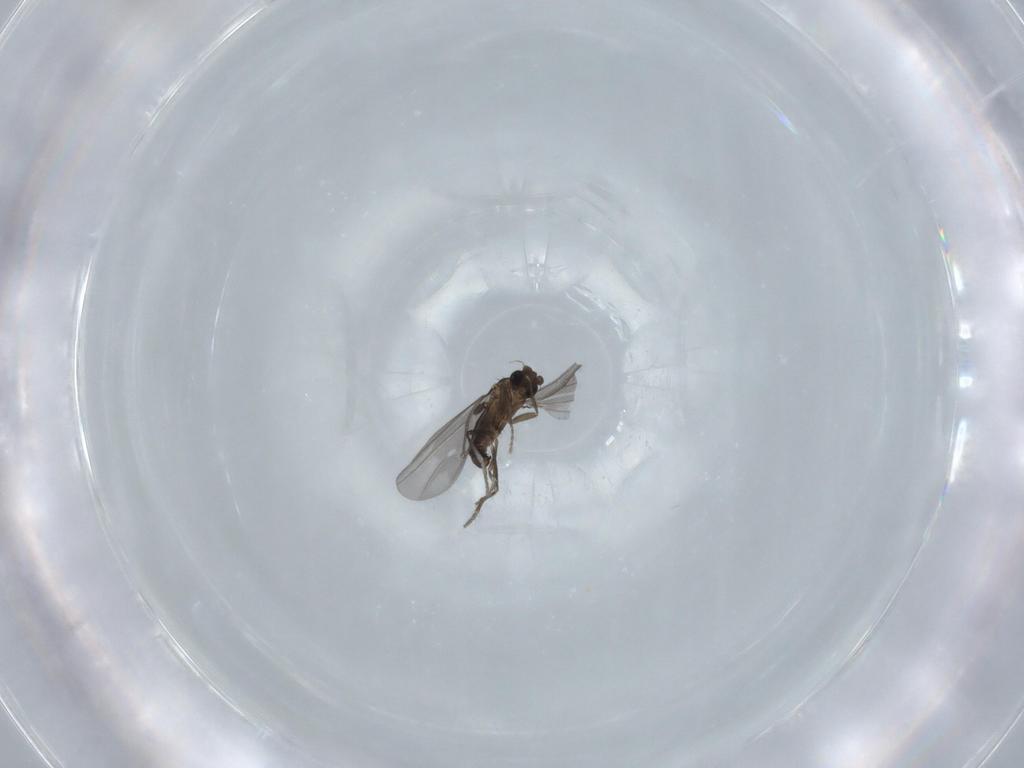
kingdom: Animalia
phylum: Arthropoda
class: Insecta
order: Diptera
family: Phoridae
